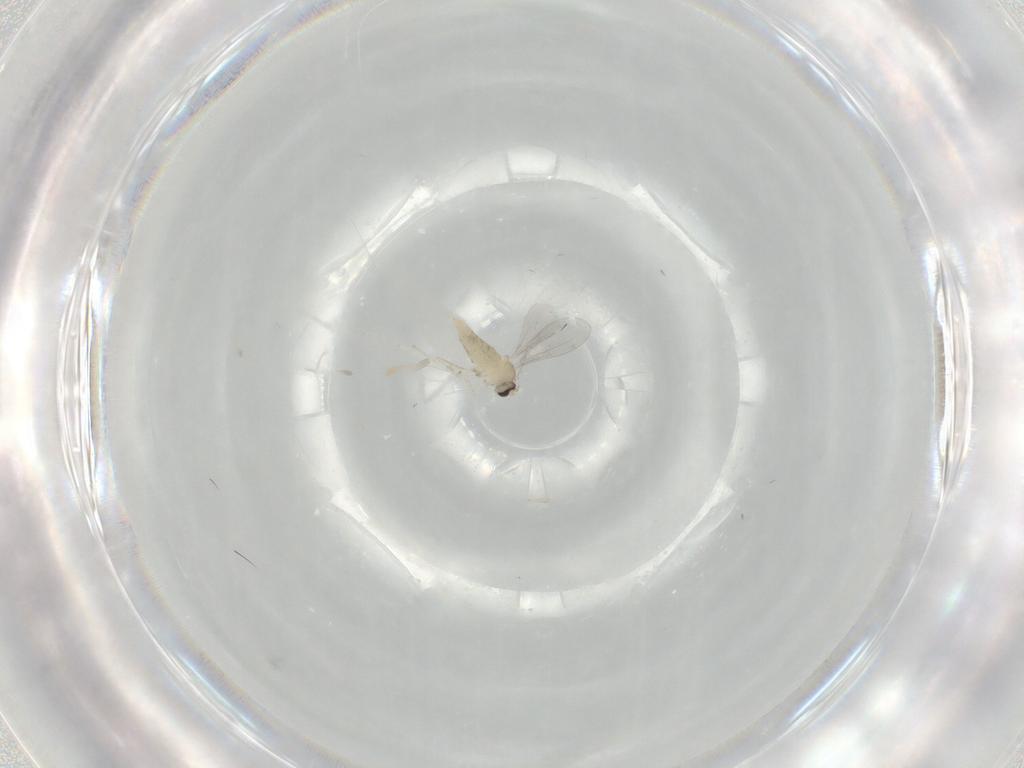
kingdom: Animalia
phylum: Arthropoda
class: Insecta
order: Diptera
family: Cecidomyiidae
